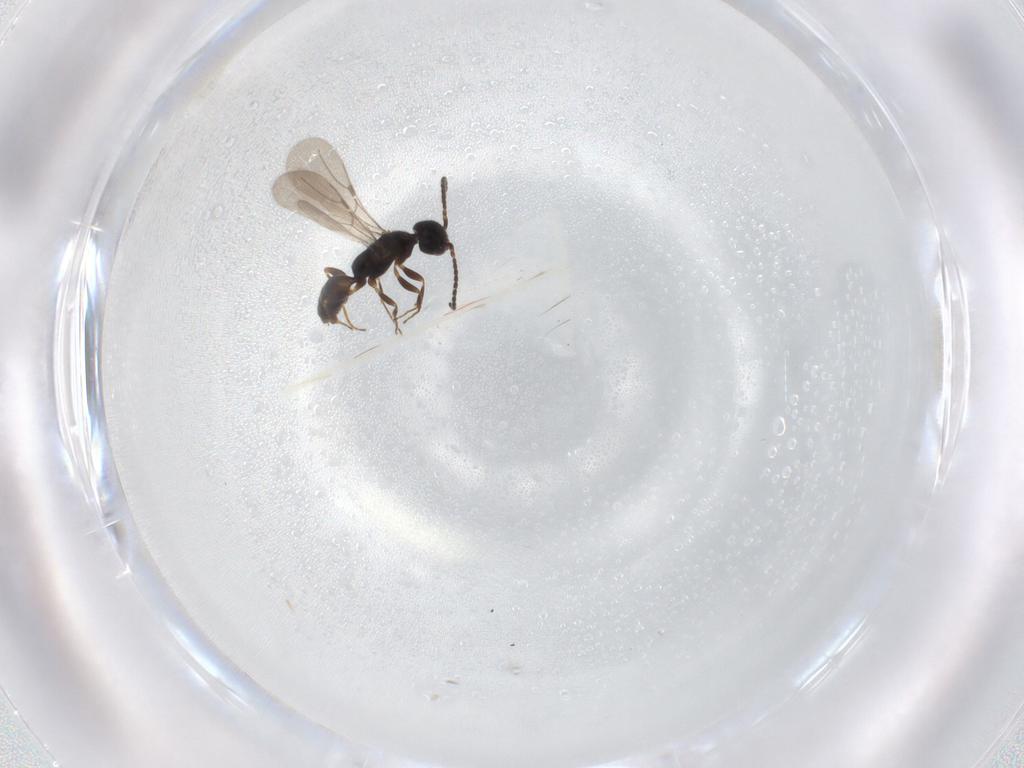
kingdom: Animalia
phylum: Arthropoda
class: Insecta
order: Hymenoptera
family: Bethylidae
